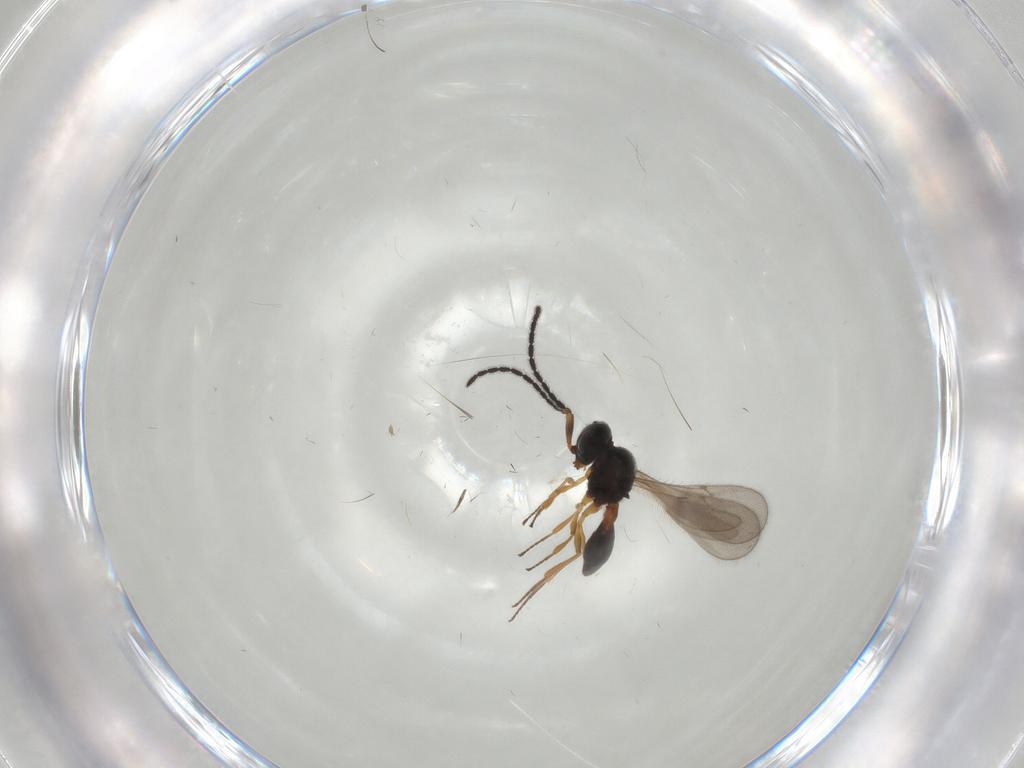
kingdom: Animalia
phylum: Arthropoda
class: Insecta
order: Hymenoptera
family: Scelionidae
